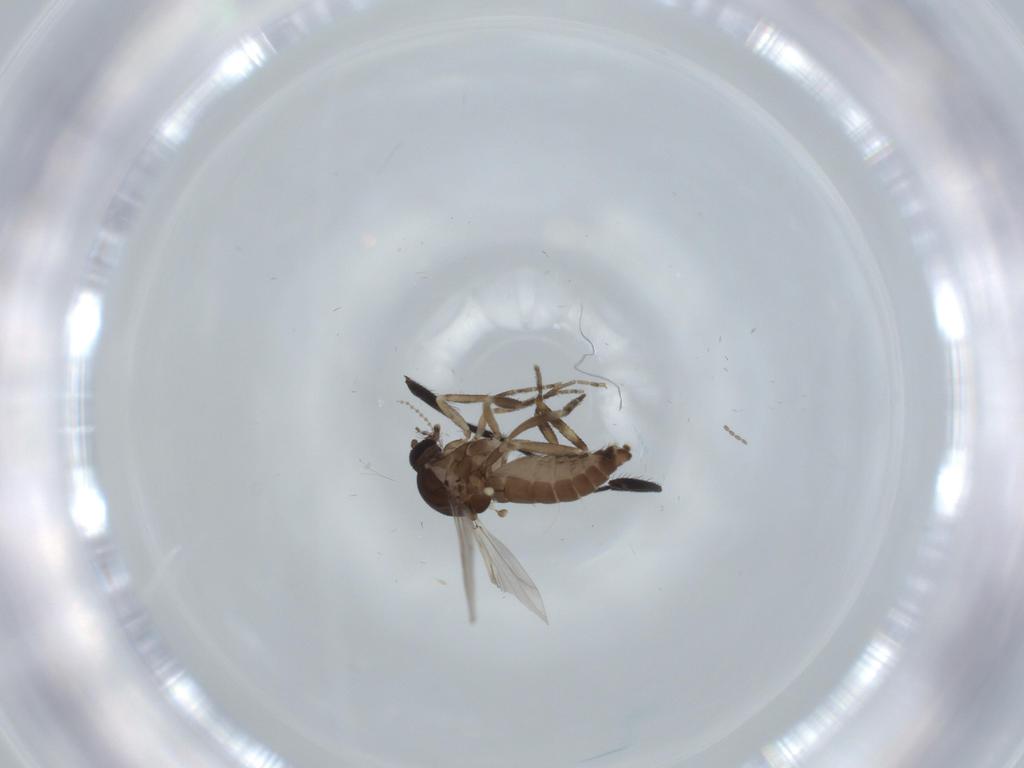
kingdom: Animalia
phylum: Arthropoda
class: Insecta
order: Diptera
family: Ceratopogonidae
